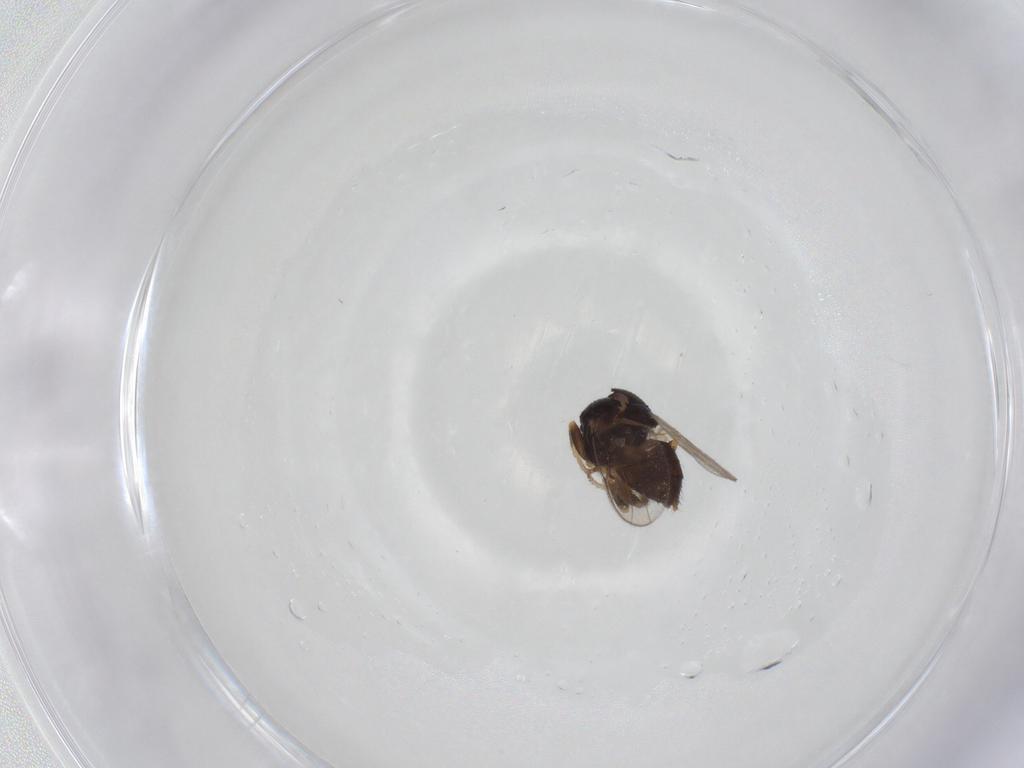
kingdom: Animalia
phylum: Arthropoda
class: Insecta
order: Diptera
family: Chloropidae
